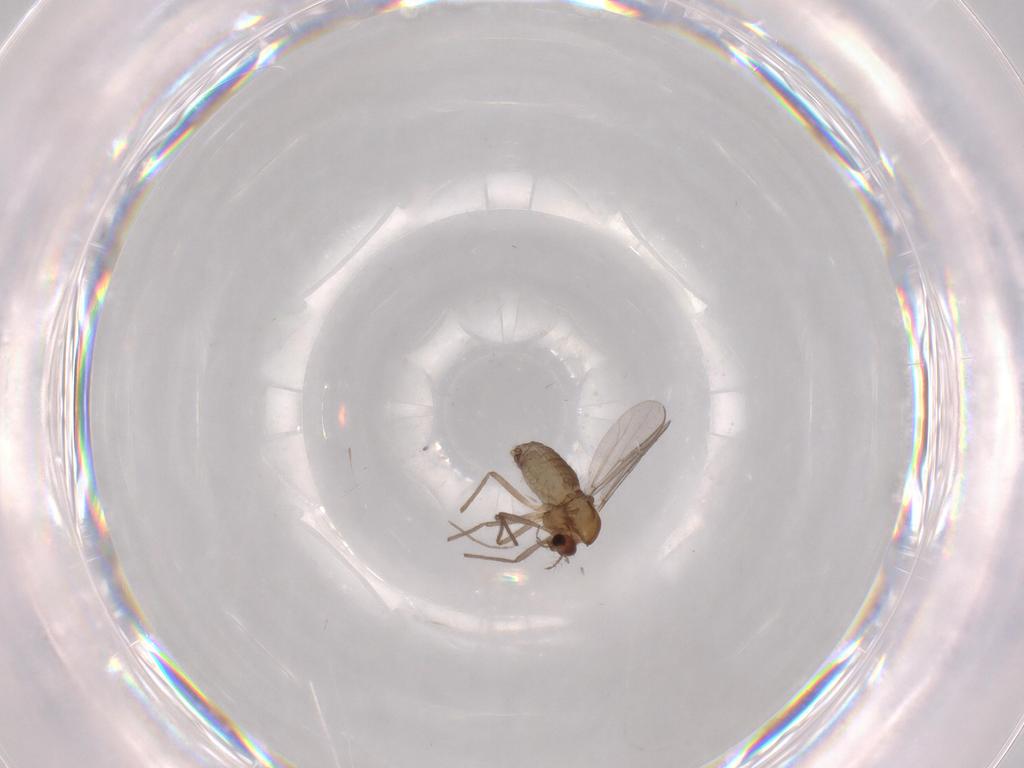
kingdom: Animalia
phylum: Arthropoda
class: Insecta
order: Diptera
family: Chironomidae
